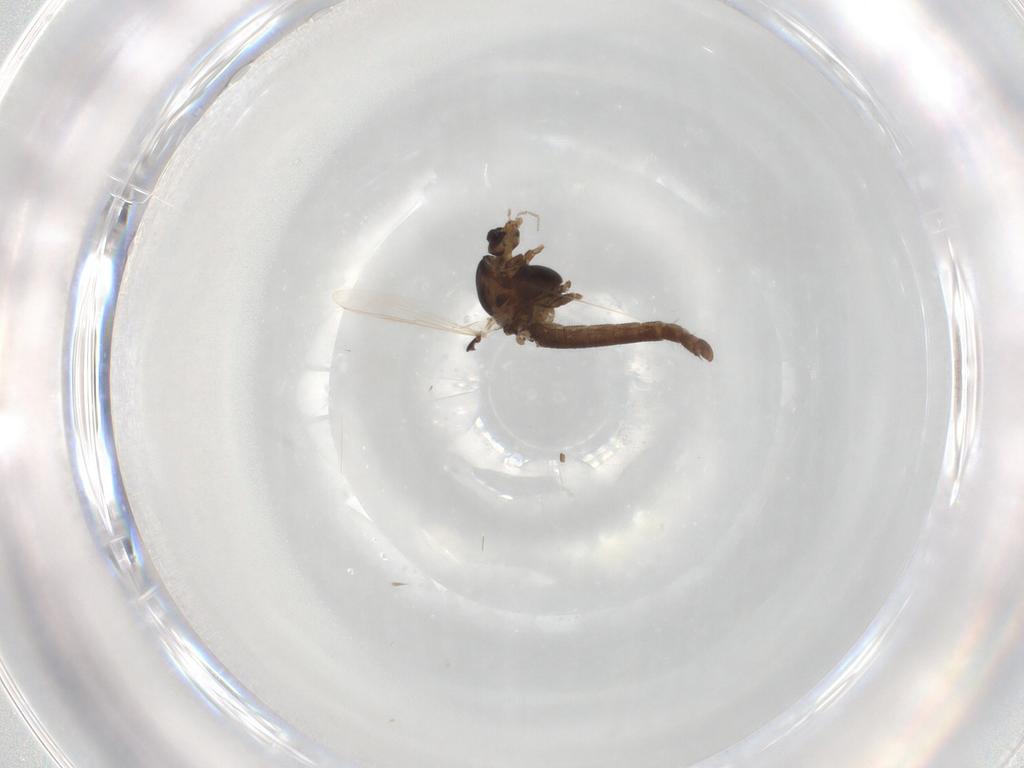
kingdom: Animalia
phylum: Arthropoda
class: Insecta
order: Diptera
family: Chironomidae
